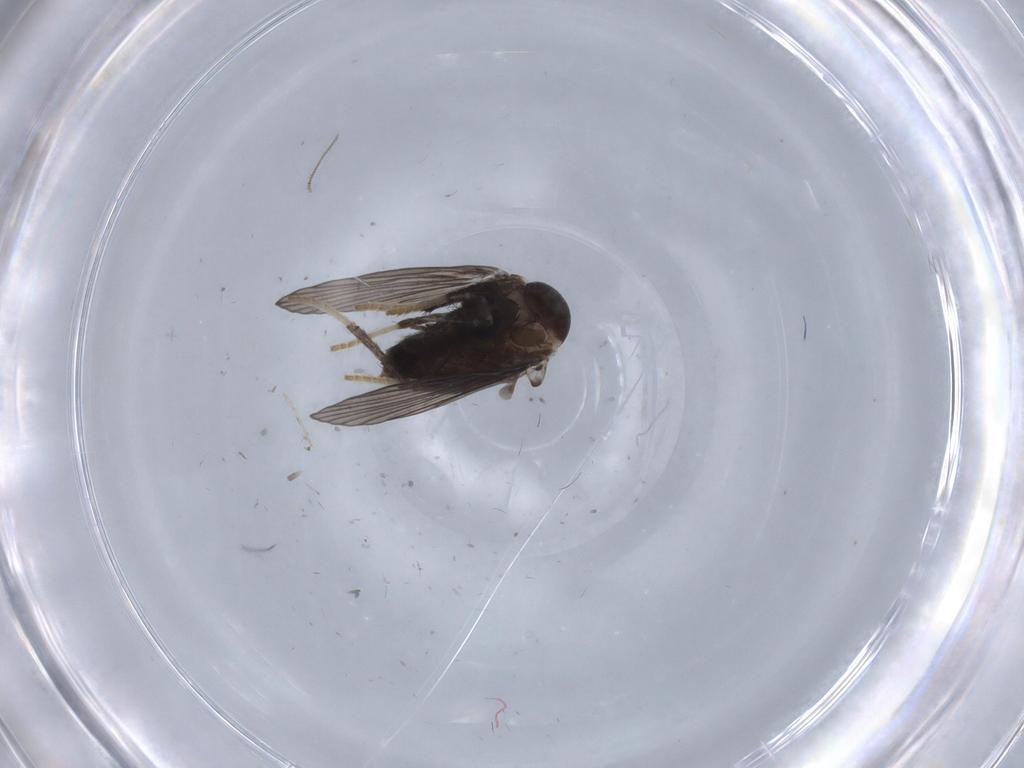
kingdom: Animalia
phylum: Arthropoda
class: Insecta
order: Diptera
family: Psychodidae
